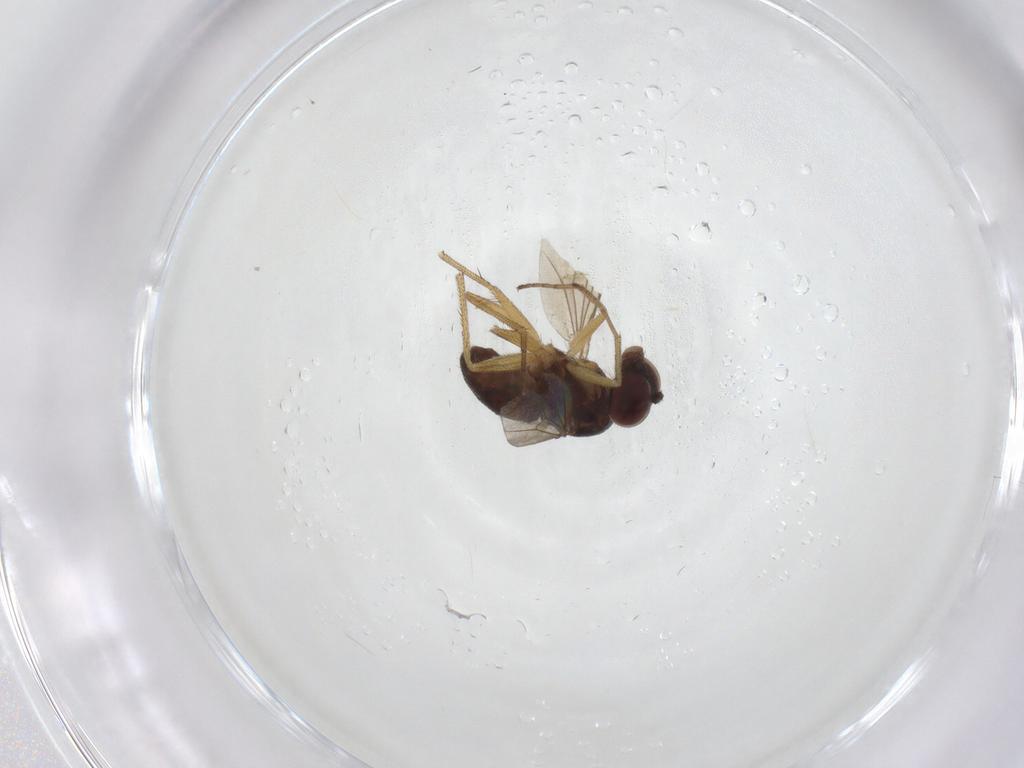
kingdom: Animalia
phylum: Arthropoda
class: Insecta
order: Diptera
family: Dolichopodidae
